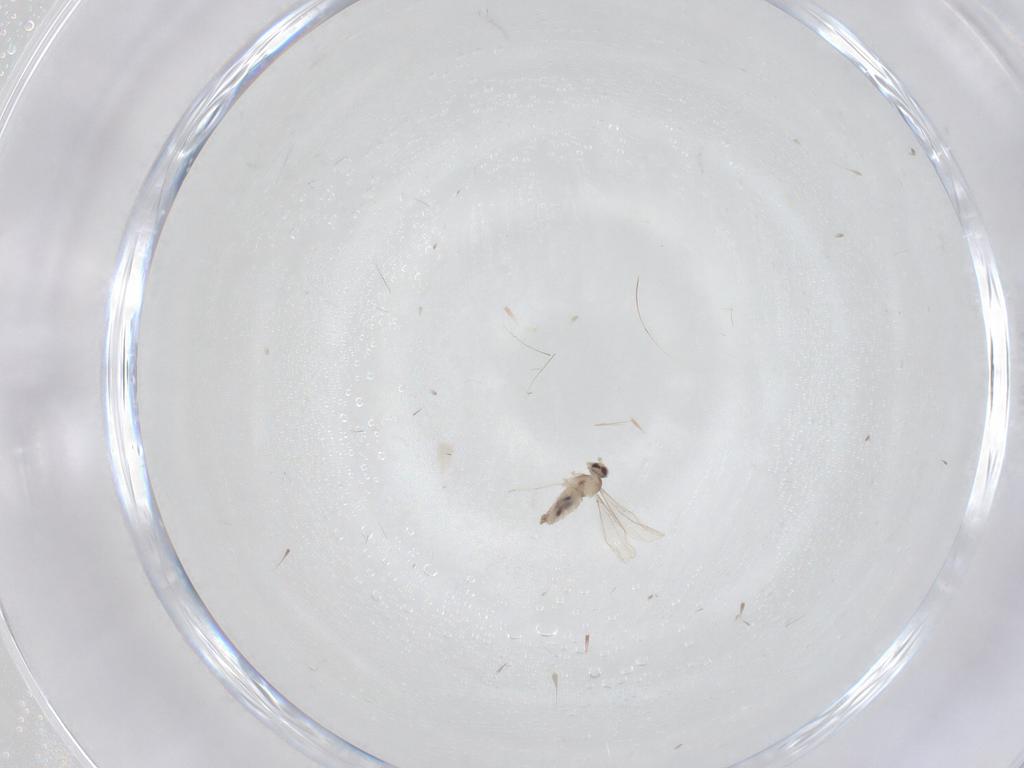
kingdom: Animalia
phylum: Arthropoda
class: Insecta
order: Diptera
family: Cecidomyiidae
